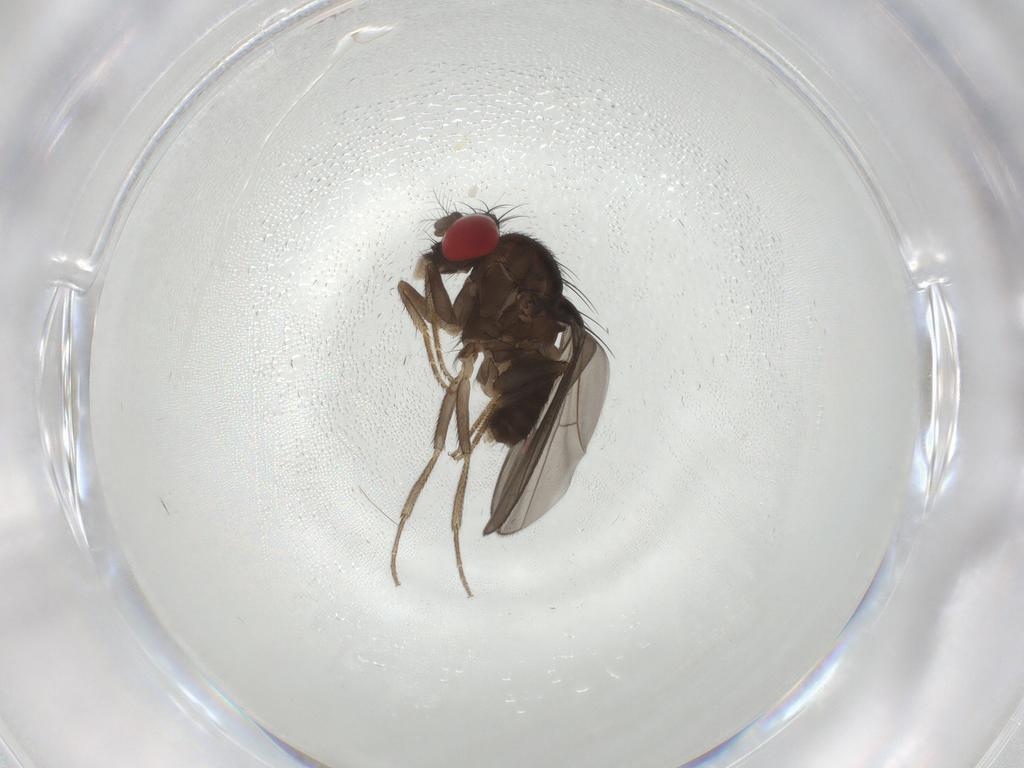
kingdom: Animalia
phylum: Arthropoda
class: Insecta
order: Diptera
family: Drosophilidae
